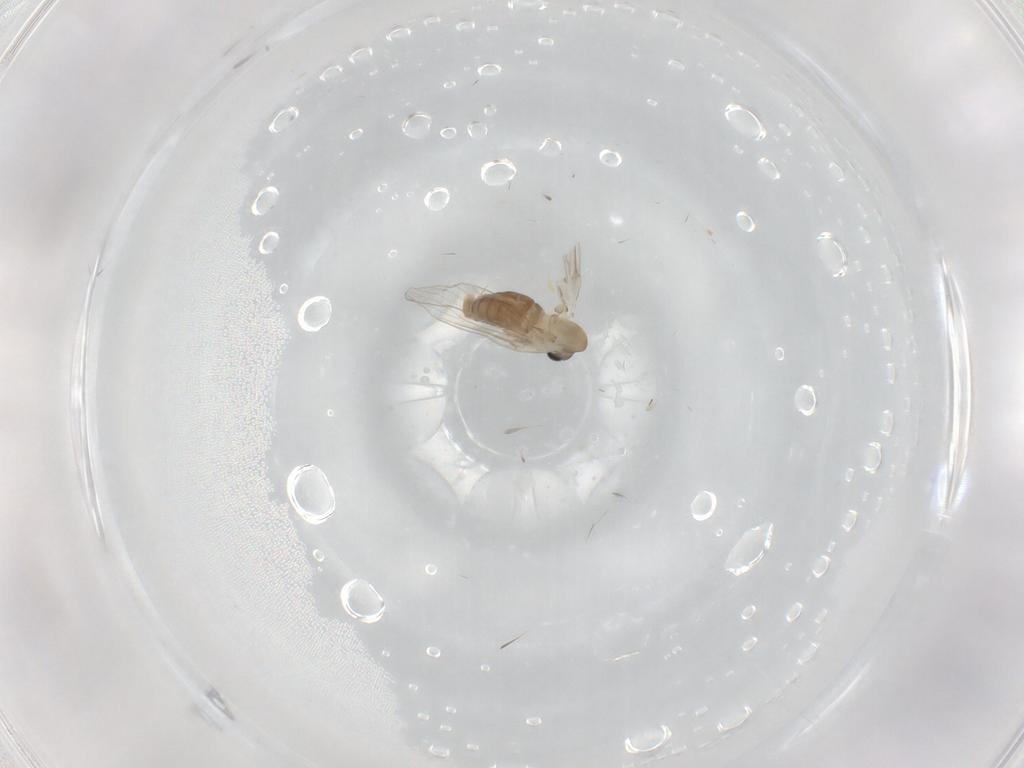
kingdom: Animalia
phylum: Arthropoda
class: Insecta
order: Diptera
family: Psychodidae
